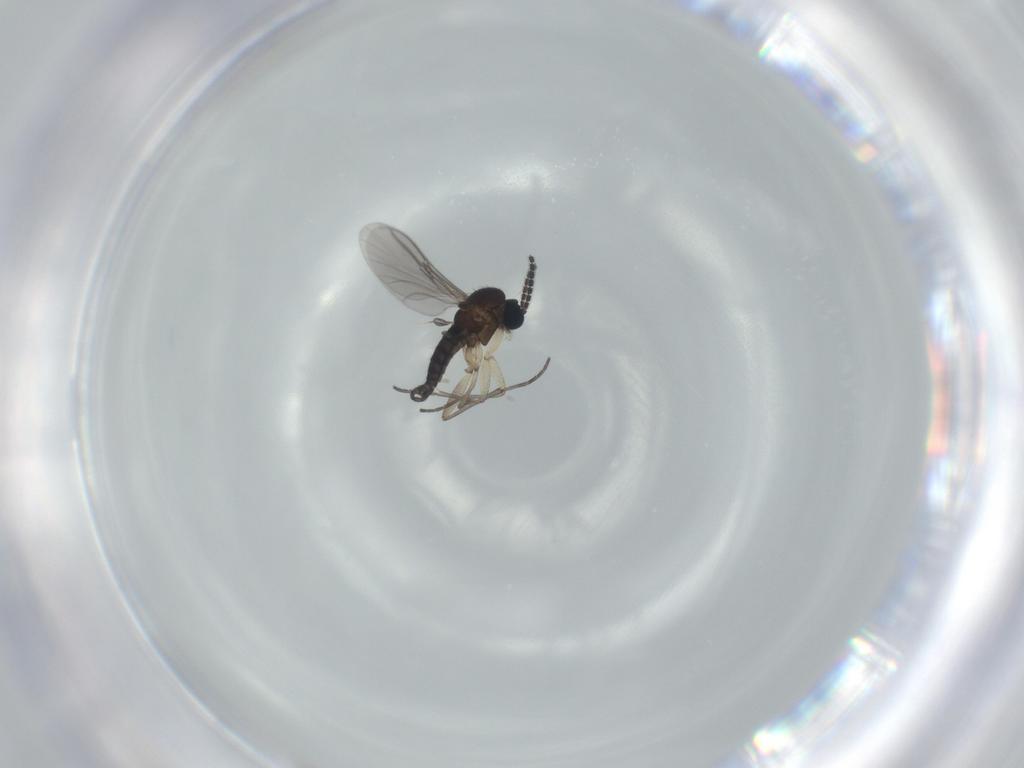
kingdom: Animalia
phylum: Arthropoda
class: Insecta
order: Diptera
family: Sciaridae
